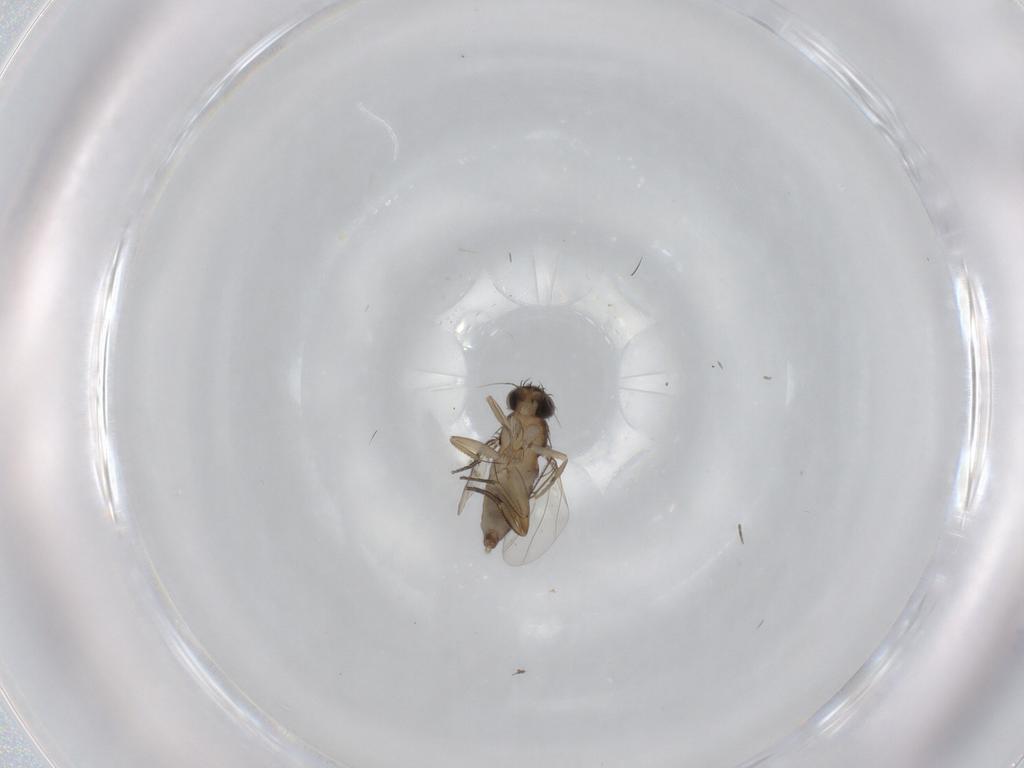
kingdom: Animalia
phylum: Arthropoda
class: Insecta
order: Diptera
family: Phoridae
